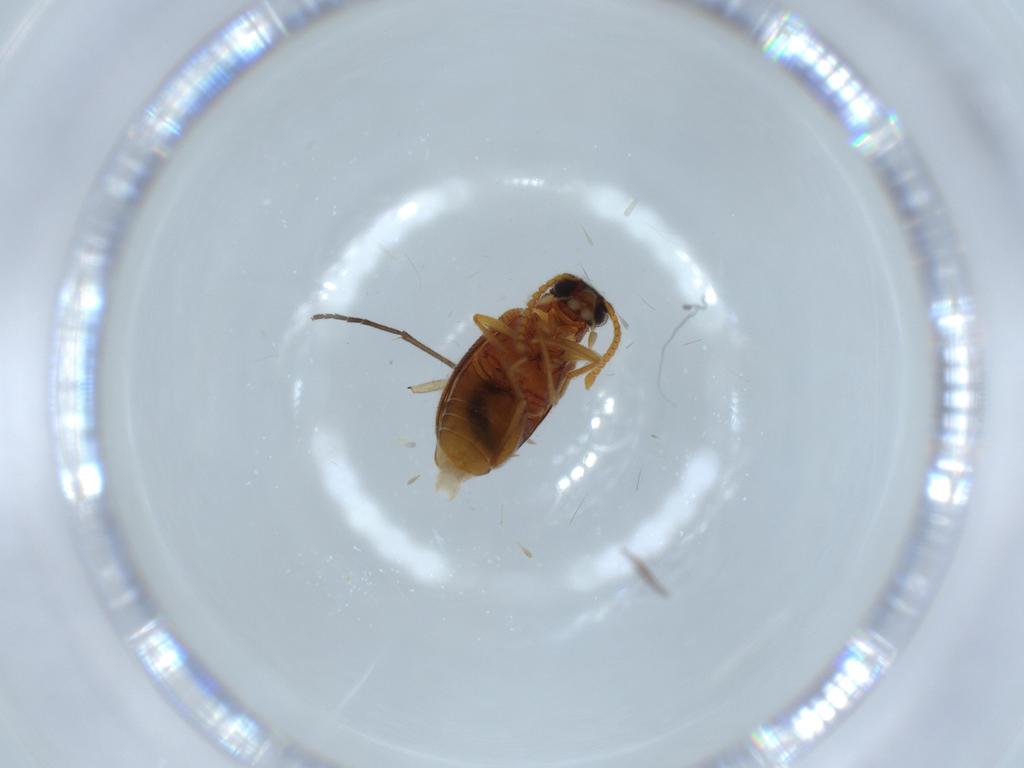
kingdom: Animalia
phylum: Arthropoda
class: Insecta
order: Coleoptera
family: Aderidae
